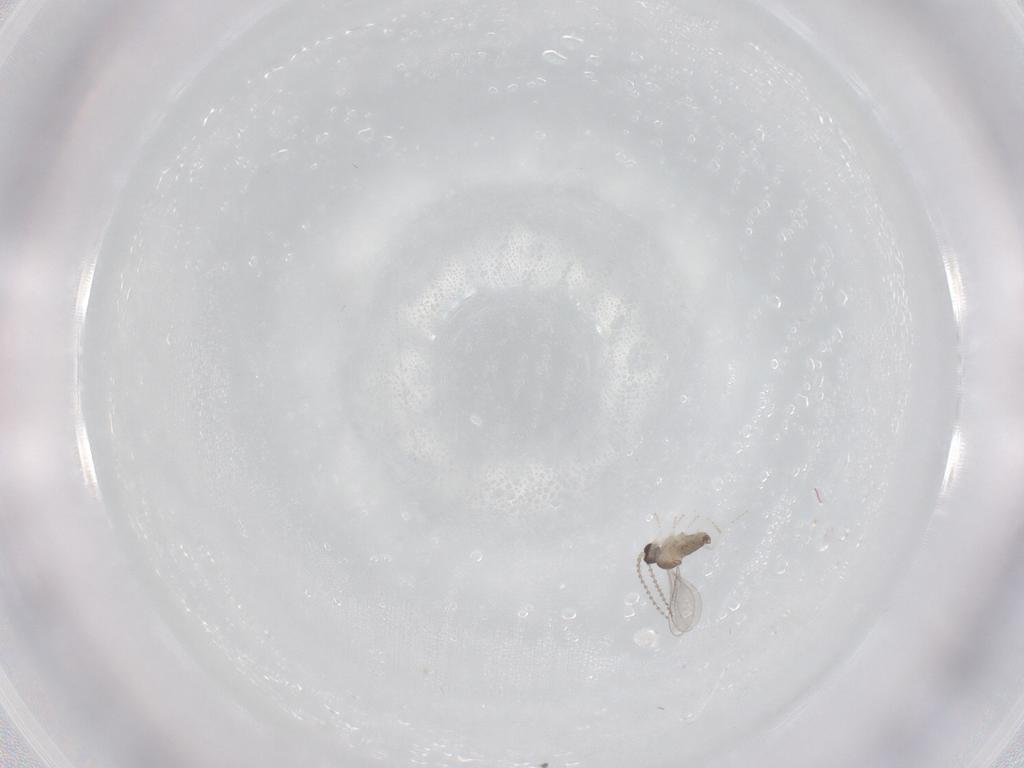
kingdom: Animalia
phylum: Arthropoda
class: Insecta
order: Diptera
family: Cecidomyiidae
